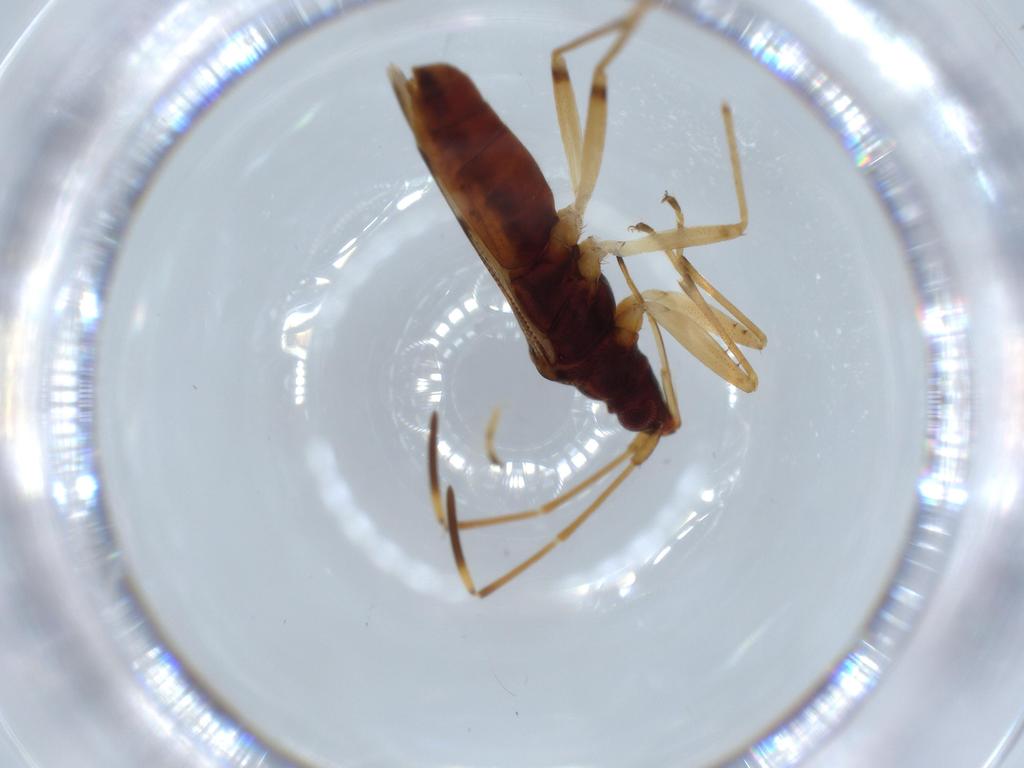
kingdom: Animalia
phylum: Arthropoda
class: Insecta
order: Hemiptera
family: Rhyparochromidae
